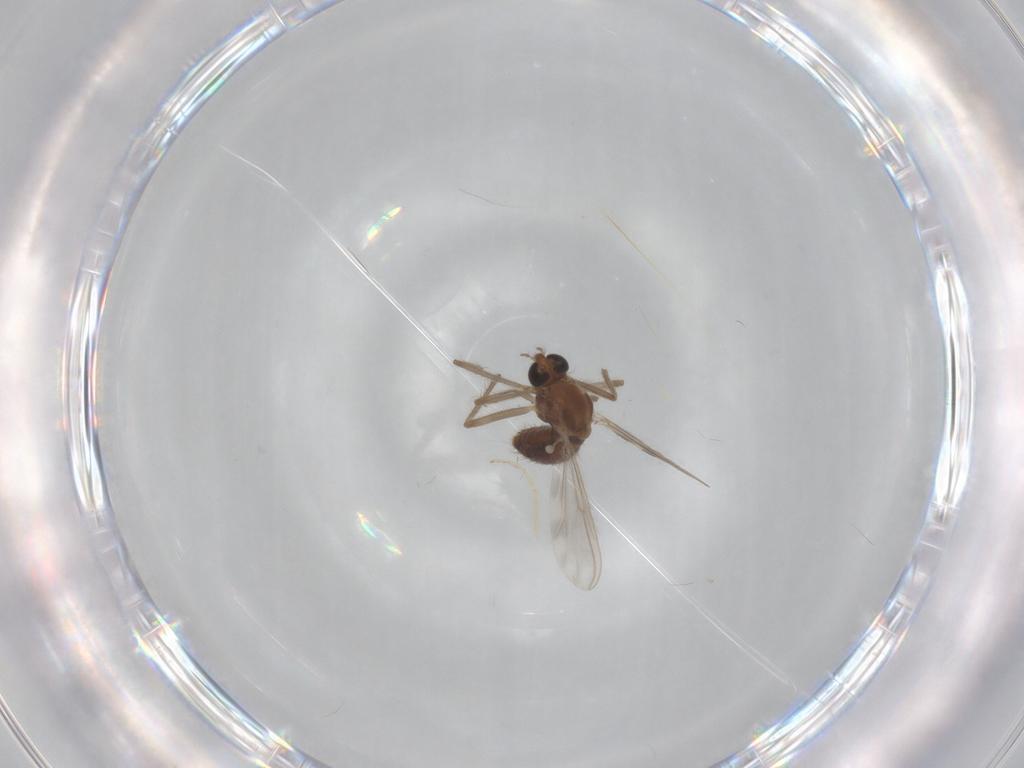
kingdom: Animalia
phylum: Arthropoda
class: Insecta
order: Diptera
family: Chironomidae
